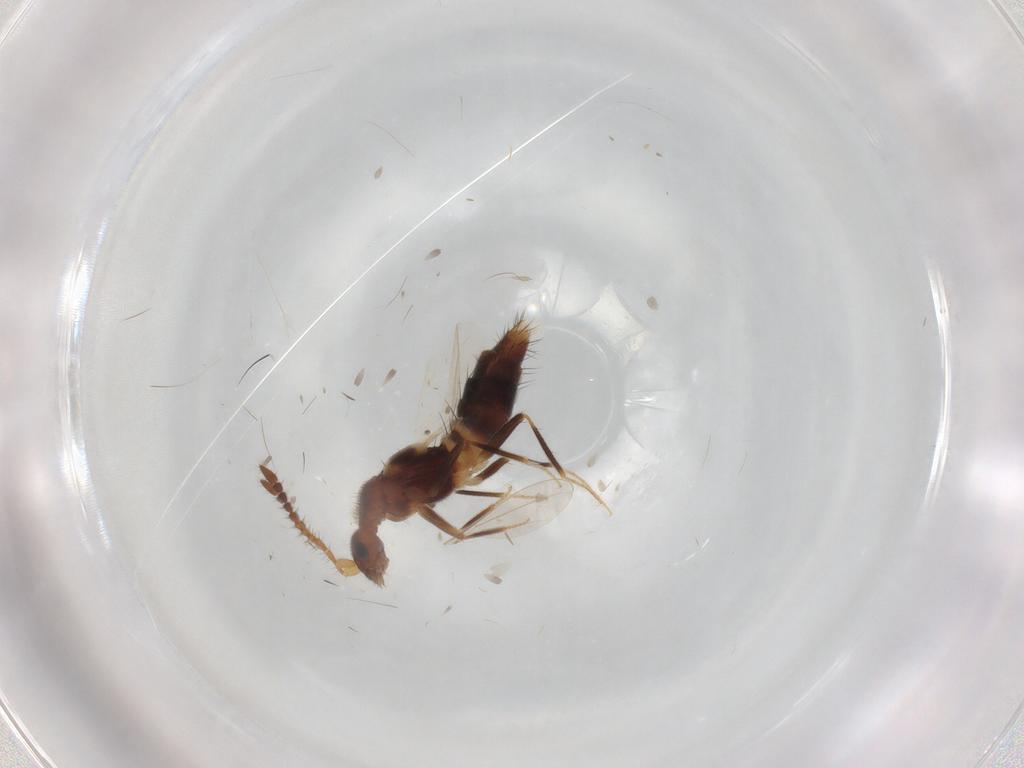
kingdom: Animalia
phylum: Arthropoda
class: Insecta
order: Coleoptera
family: Staphylinidae
